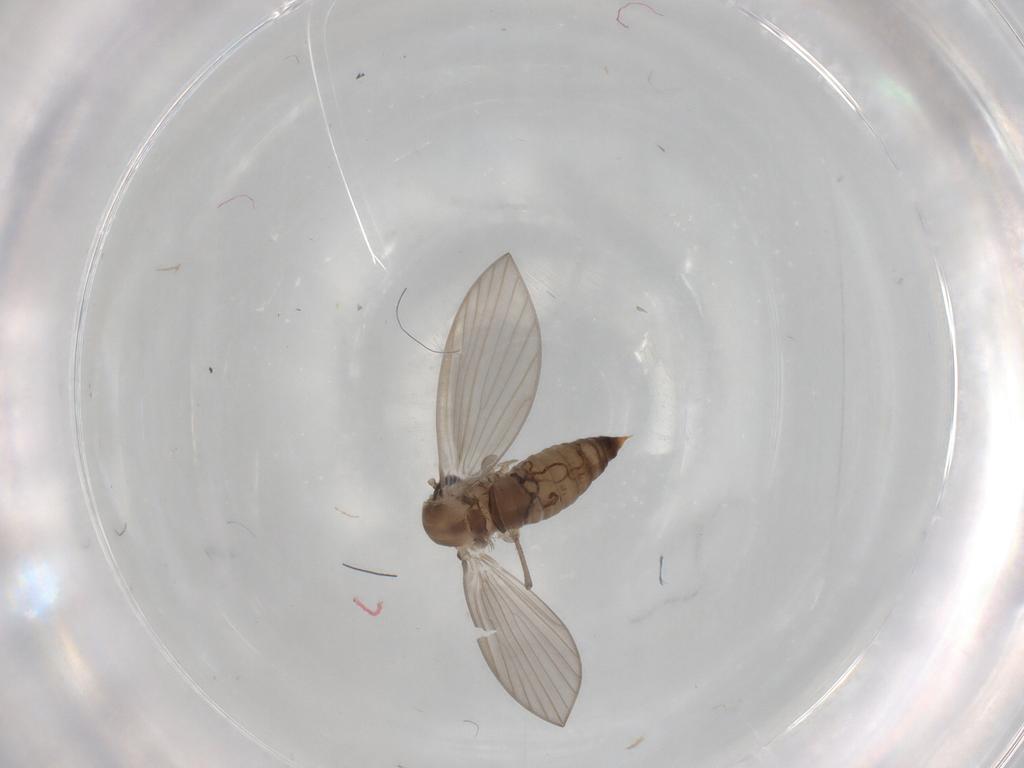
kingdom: Animalia
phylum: Arthropoda
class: Insecta
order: Diptera
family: Psychodidae
